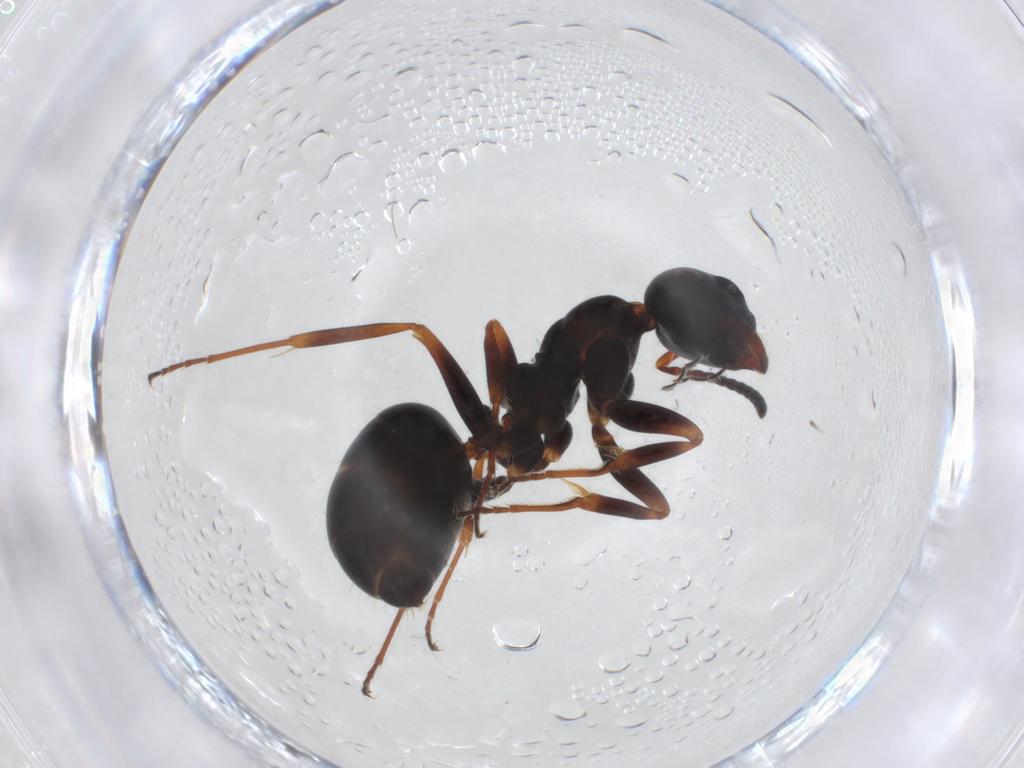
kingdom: Animalia
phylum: Arthropoda
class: Insecta
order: Hymenoptera
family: Formicidae
